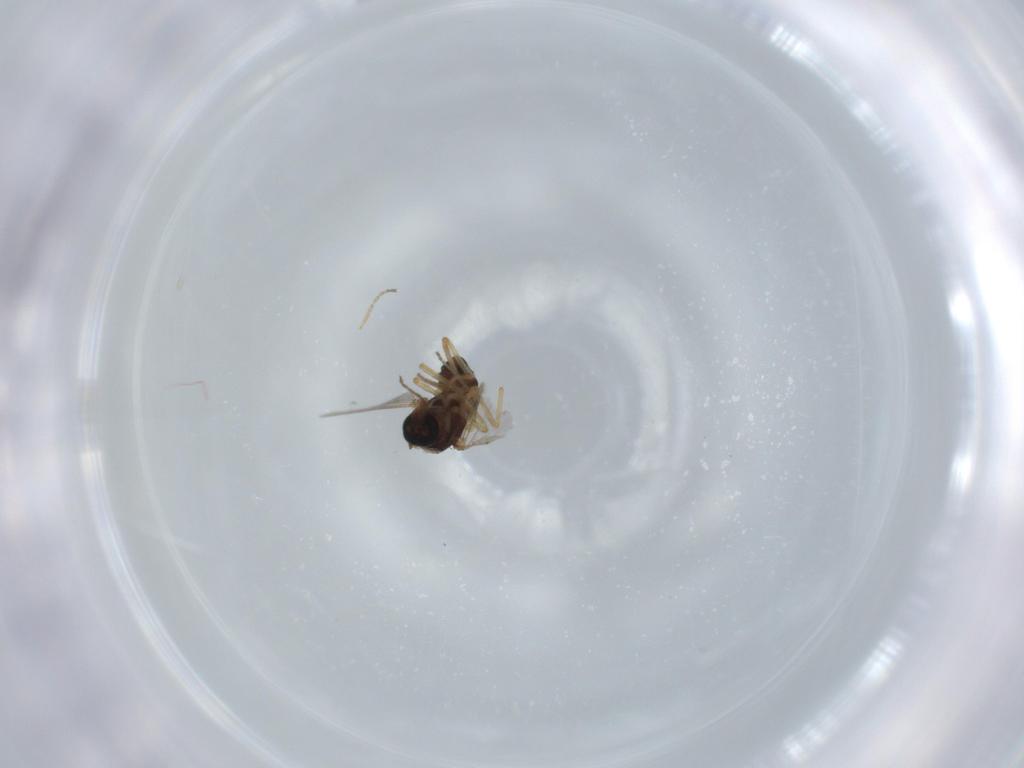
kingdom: Animalia
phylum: Arthropoda
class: Insecta
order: Diptera
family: Ceratopogonidae
